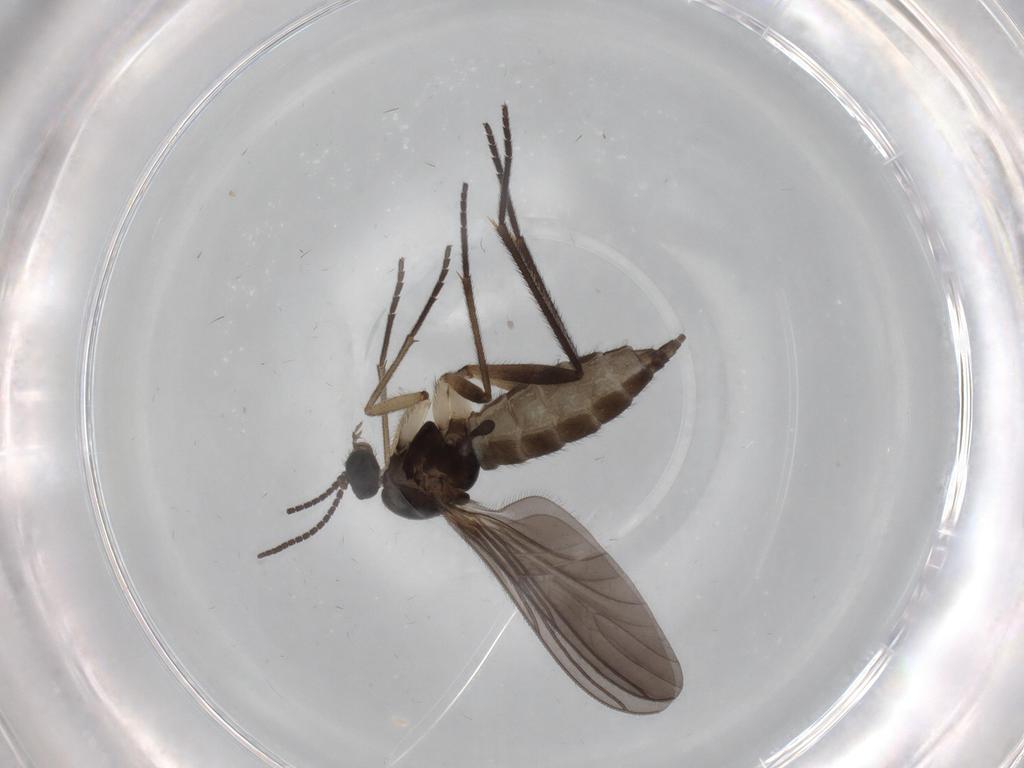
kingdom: Animalia
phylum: Arthropoda
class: Insecta
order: Diptera
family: Sciaridae
